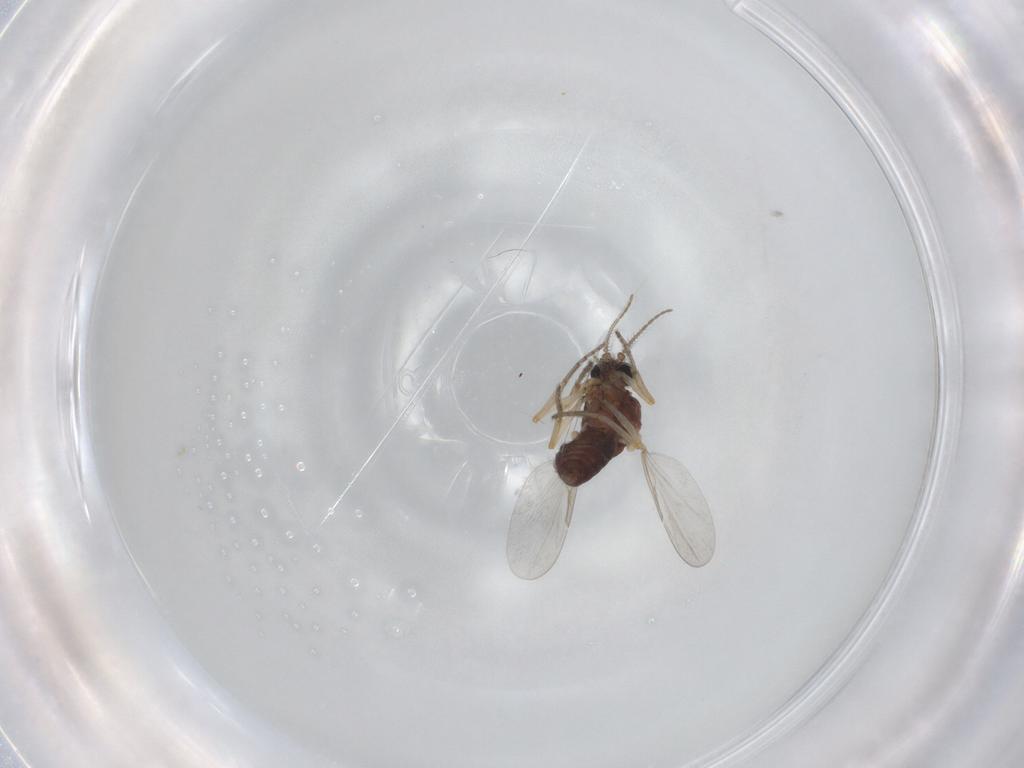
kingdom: Animalia
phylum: Arthropoda
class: Insecta
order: Diptera
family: Ceratopogonidae
